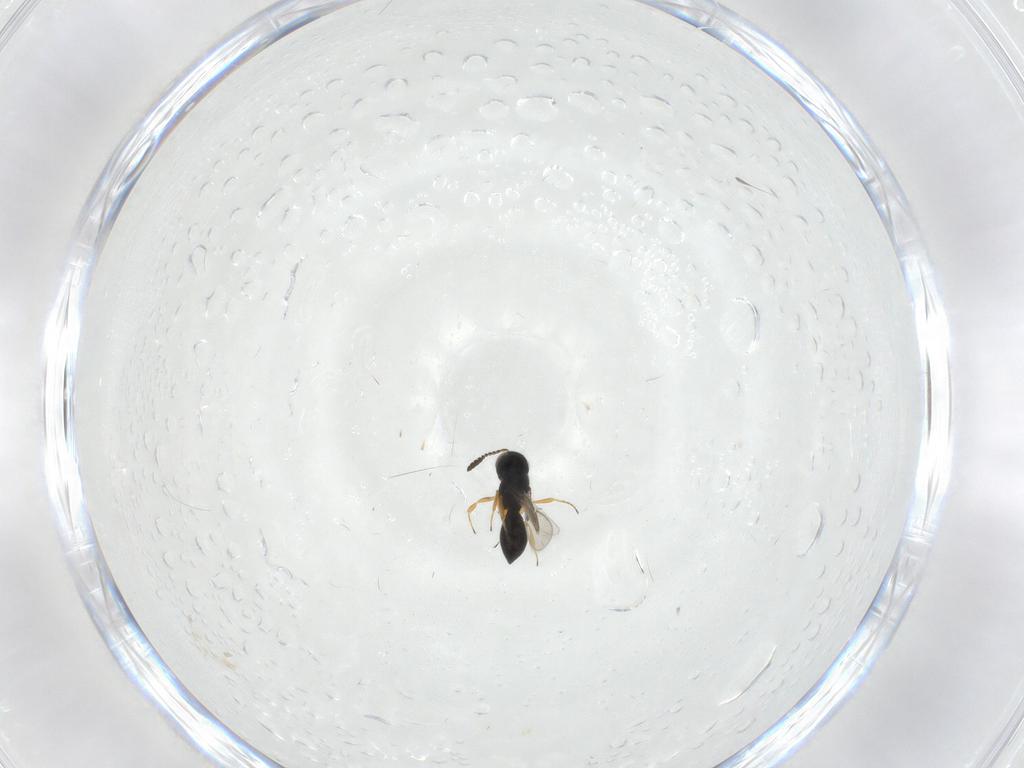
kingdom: Animalia
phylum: Arthropoda
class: Insecta
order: Hymenoptera
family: Scelionidae
